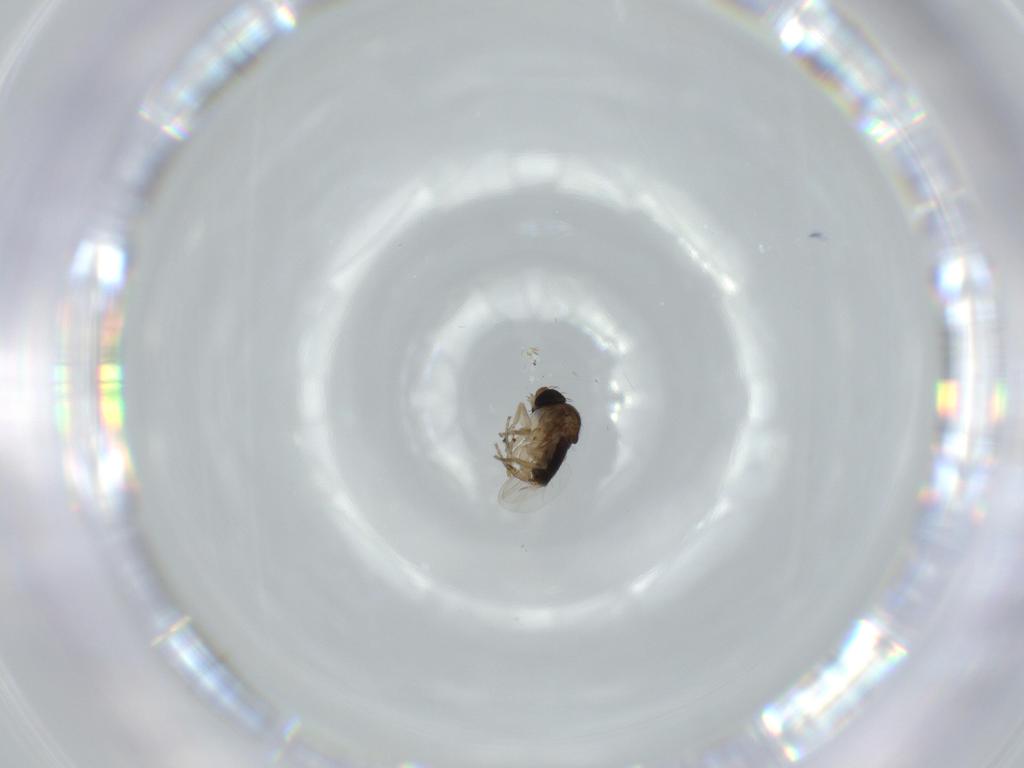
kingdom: Animalia
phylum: Arthropoda
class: Insecta
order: Diptera
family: Phoridae
